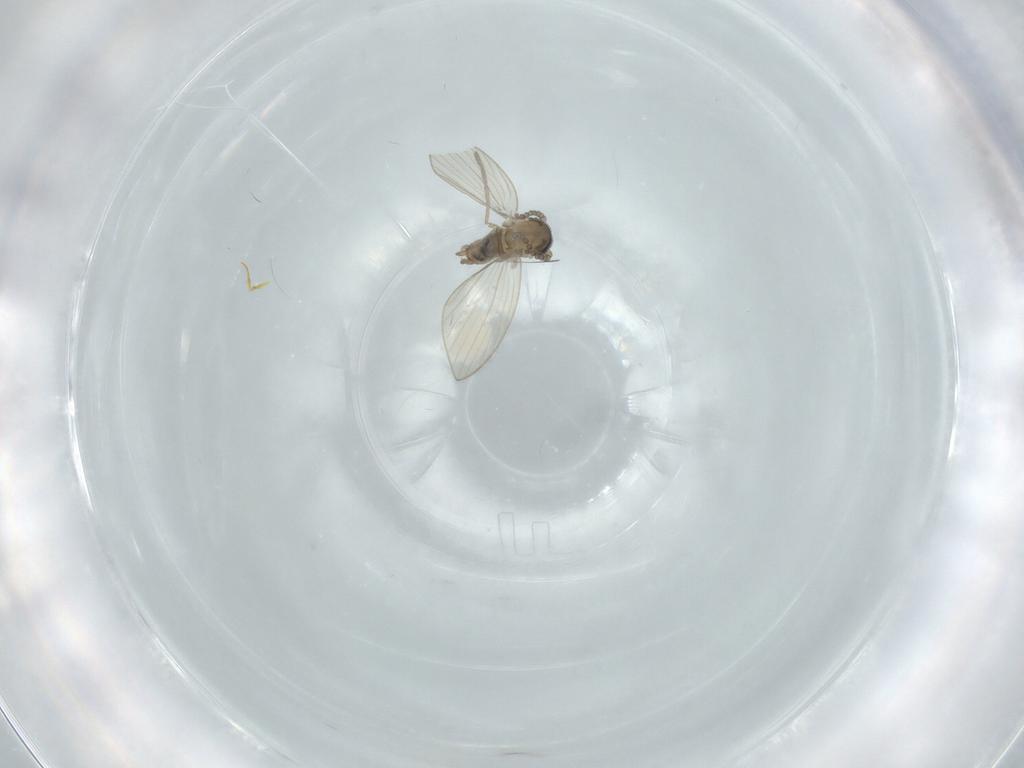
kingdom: Animalia
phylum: Arthropoda
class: Insecta
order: Diptera
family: Psychodidae
